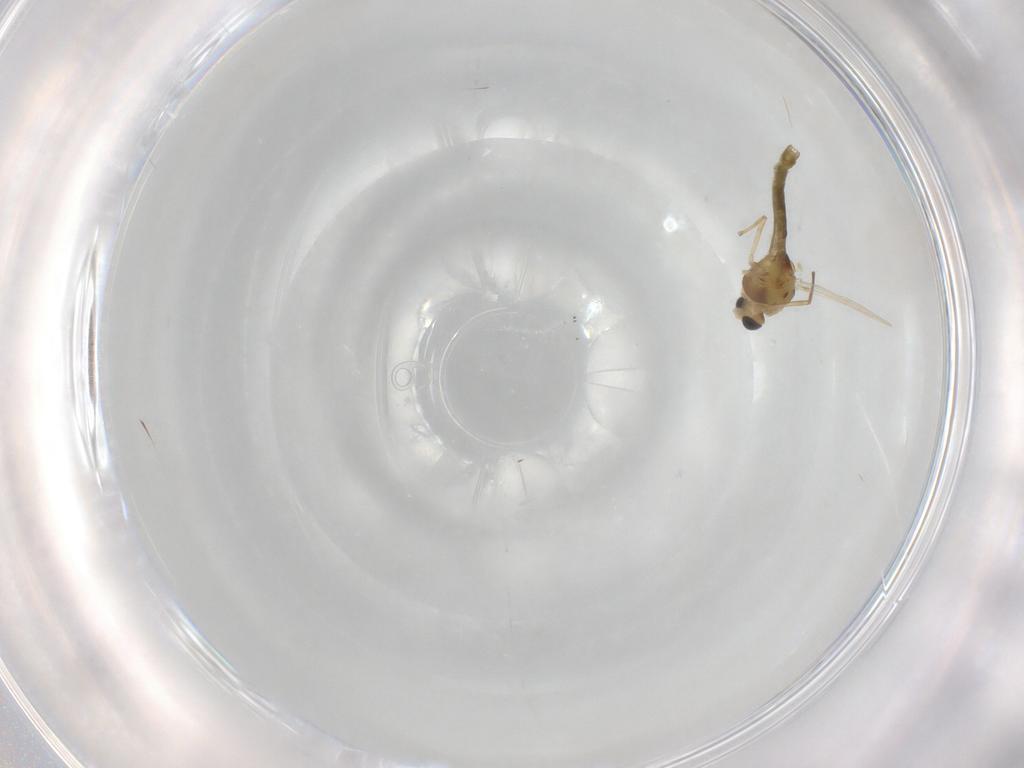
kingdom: Animalia
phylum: Arthropoda
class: Insecta
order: Diptera
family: Chironomidae
